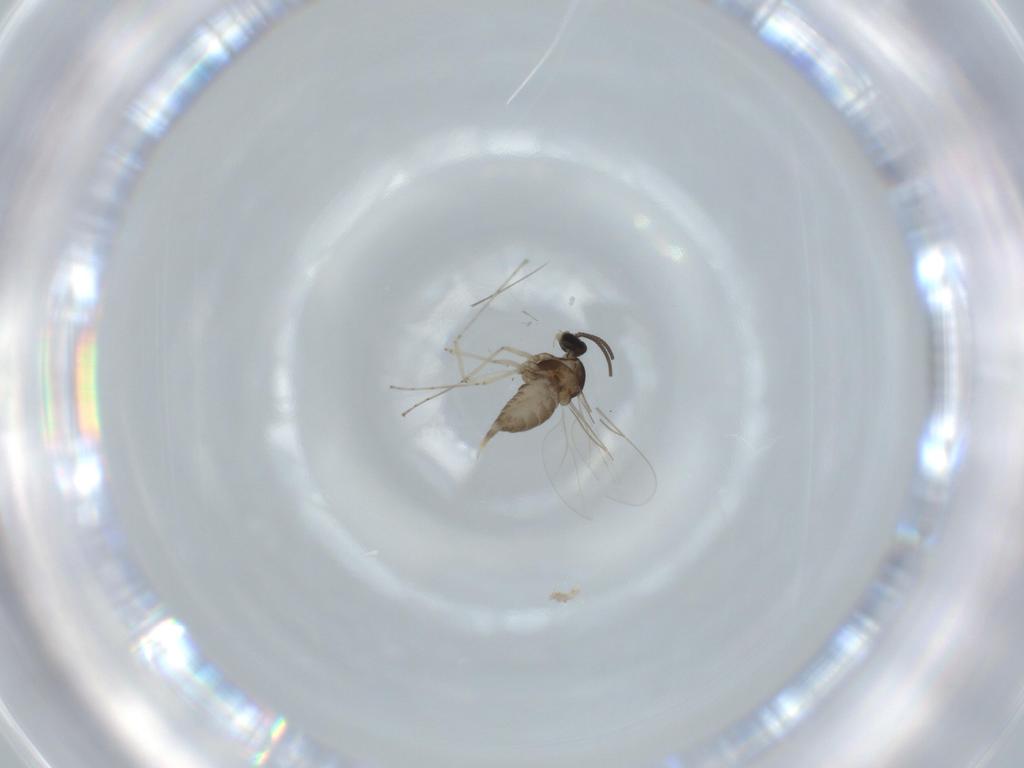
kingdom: Animalia
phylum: Arthropoda
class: Insecta
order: Diptera
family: Cecidomyiidae
